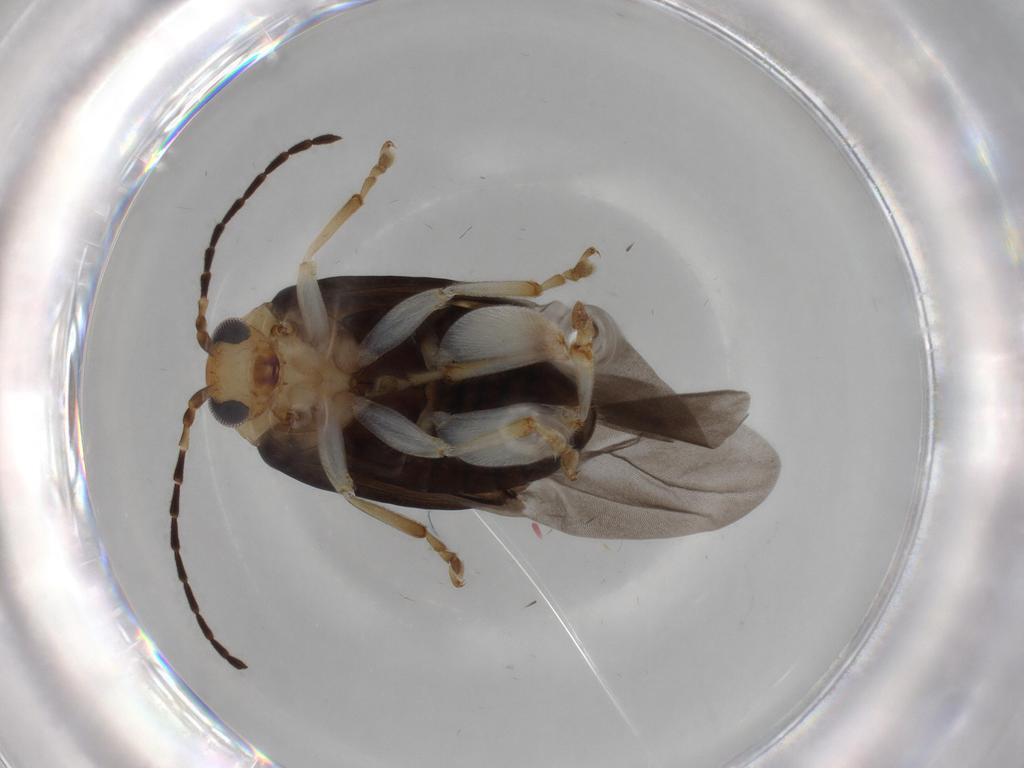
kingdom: Animalia
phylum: Arthropoda
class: Insecta
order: Coleoptera
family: Chrysomelidae
